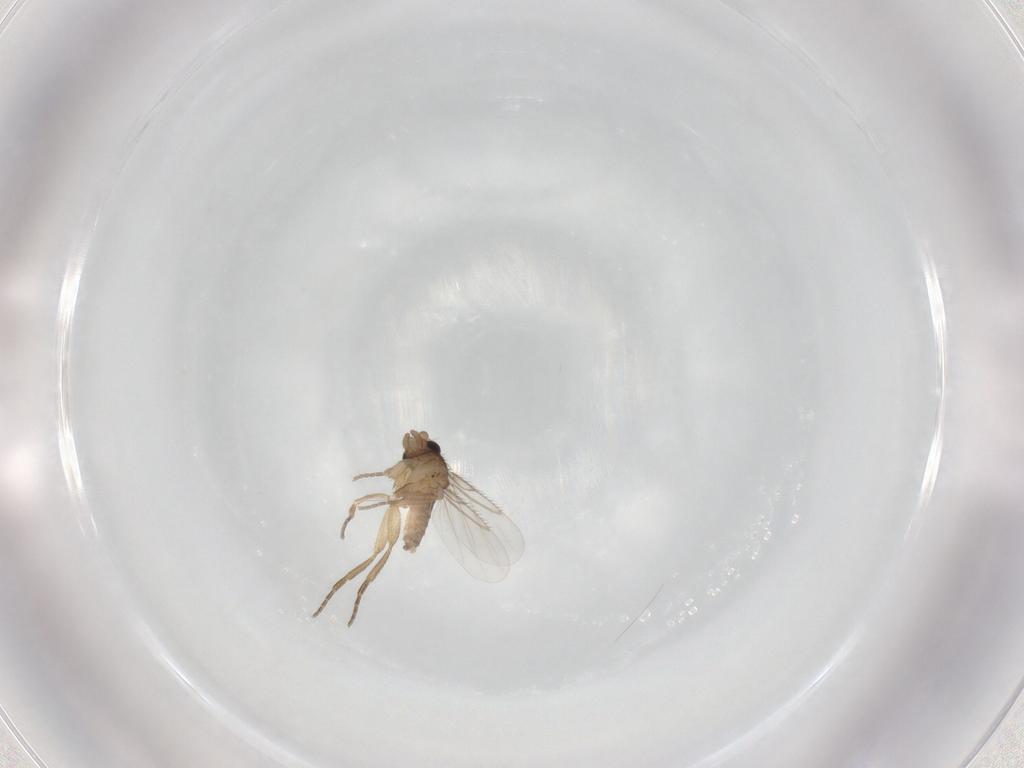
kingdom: Animalia
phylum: Arthropoda
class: Insecta
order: Diptera
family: Phoridae
